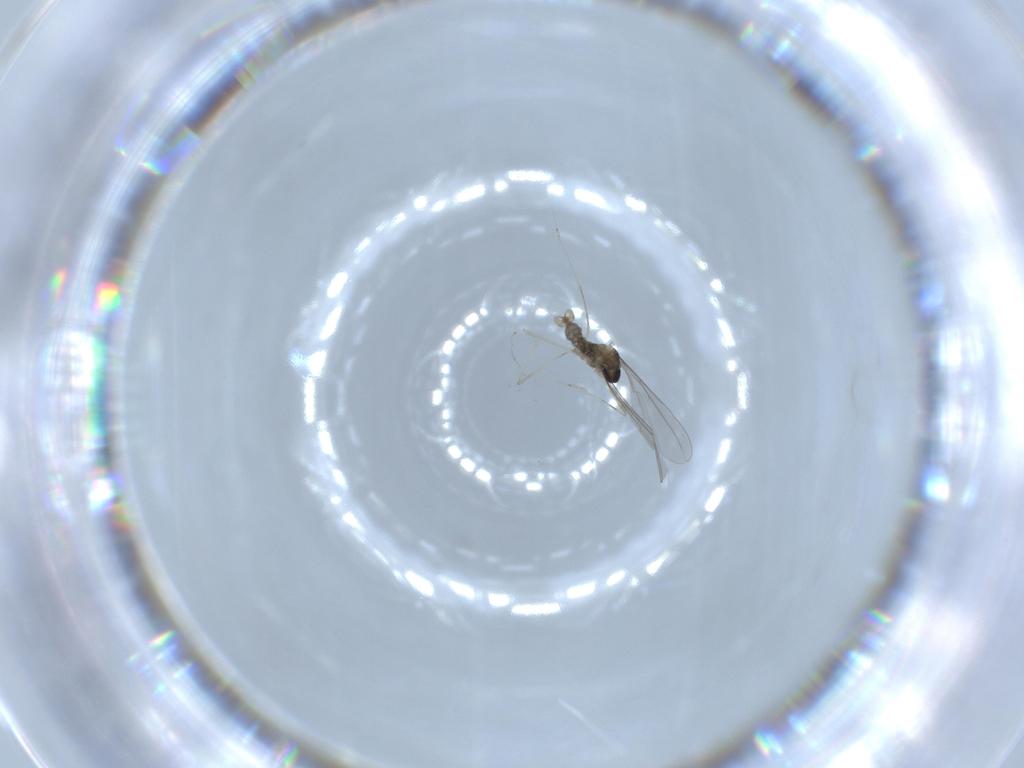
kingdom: Animalia
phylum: Arthropoda
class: Insecta
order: Diptera
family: Cecidomyiidae
